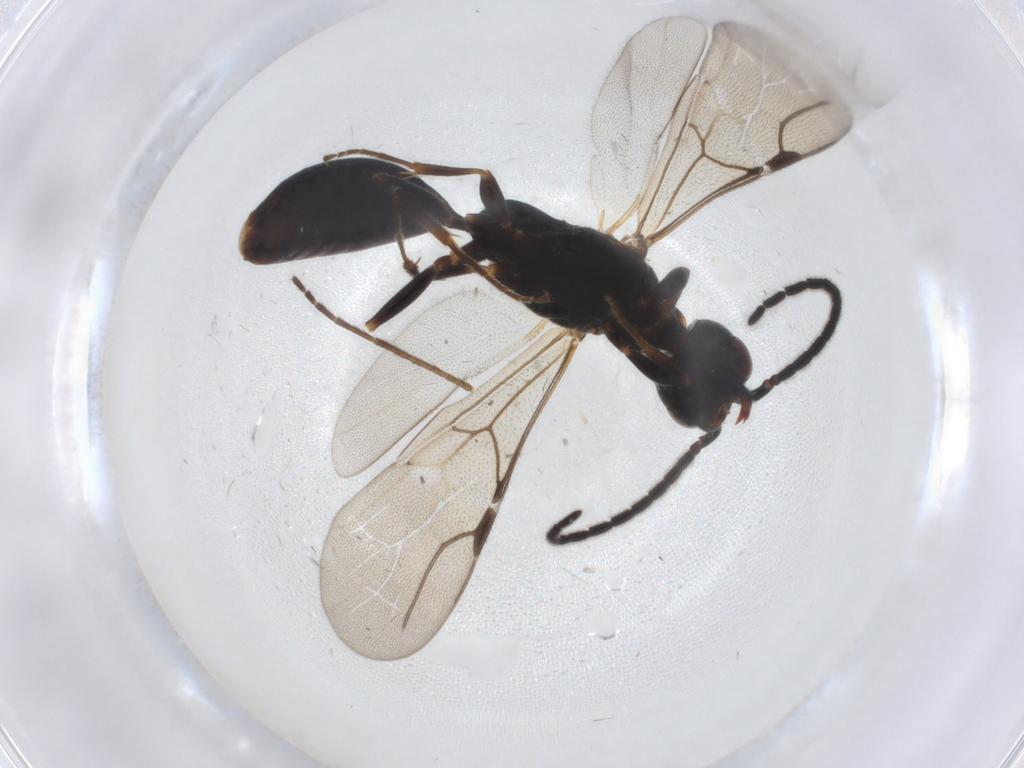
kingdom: Animalia
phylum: Arthropoda
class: Insecta
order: Hymenoptera
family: Bethylidae
